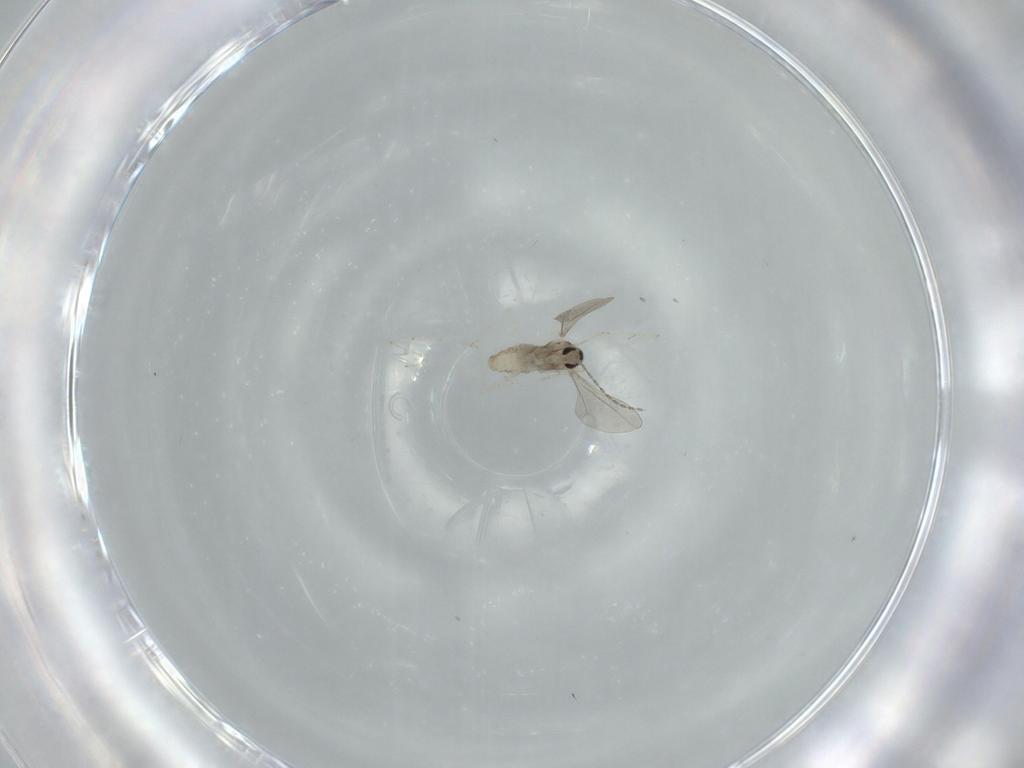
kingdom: Animalia
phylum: Arthropoda
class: Insecta
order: Diptera
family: Cecidomyiidae
